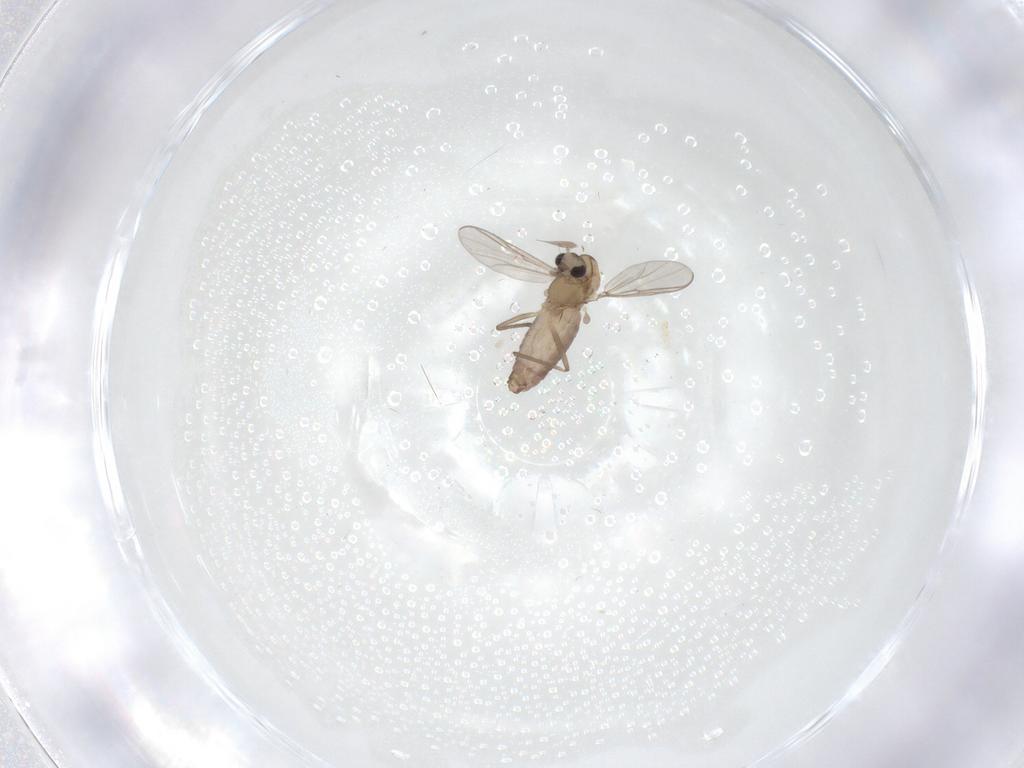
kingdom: Animalia
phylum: Arthropoda
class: Insecta
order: Diptera
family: Chironomidae
